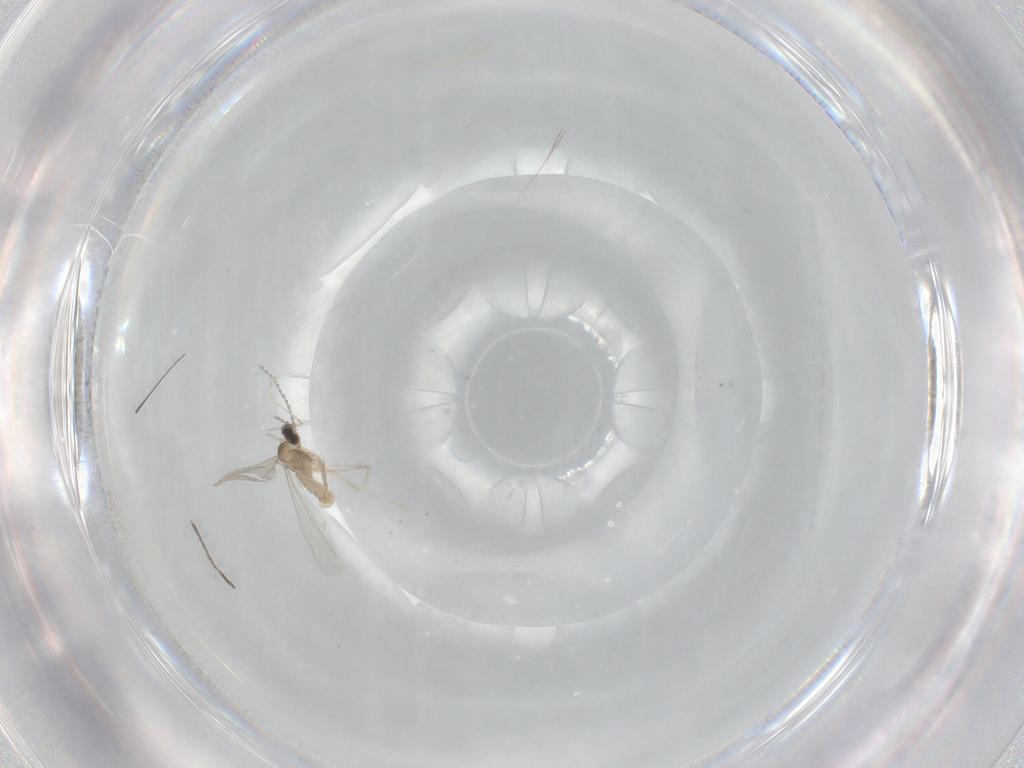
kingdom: Animalia
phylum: Arthropoda
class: Insecta
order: Diptera
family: Cecidomyiidae
